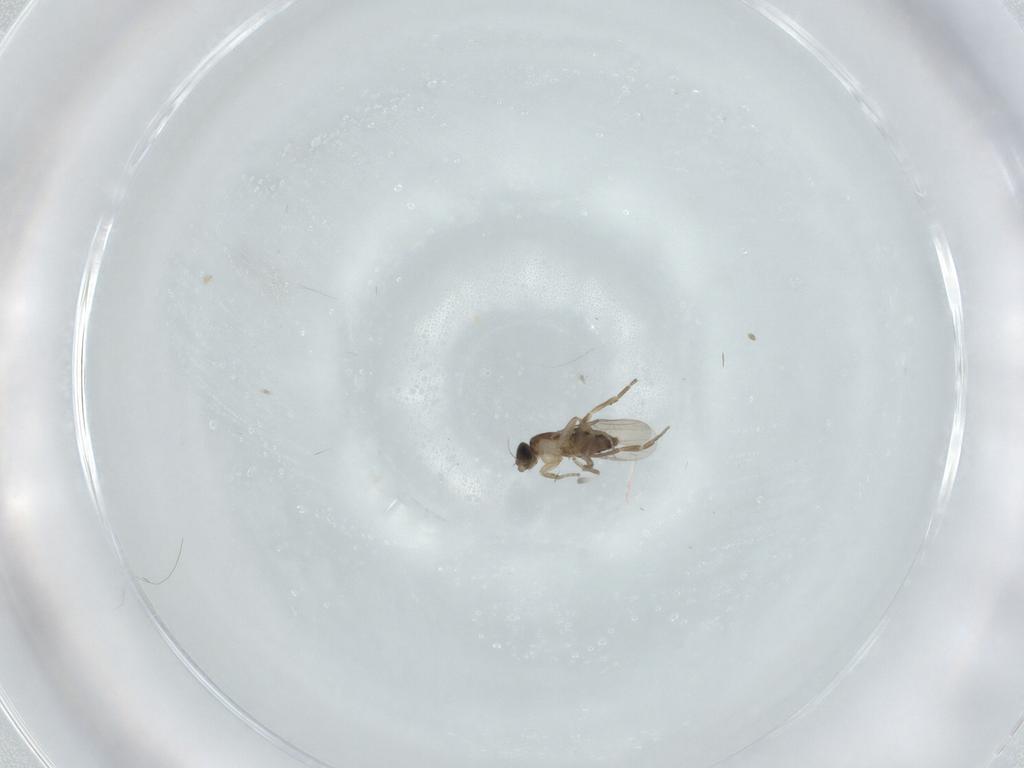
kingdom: Animalia
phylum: Arthropoda
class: Insecta
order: Diptera
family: Phoridae
